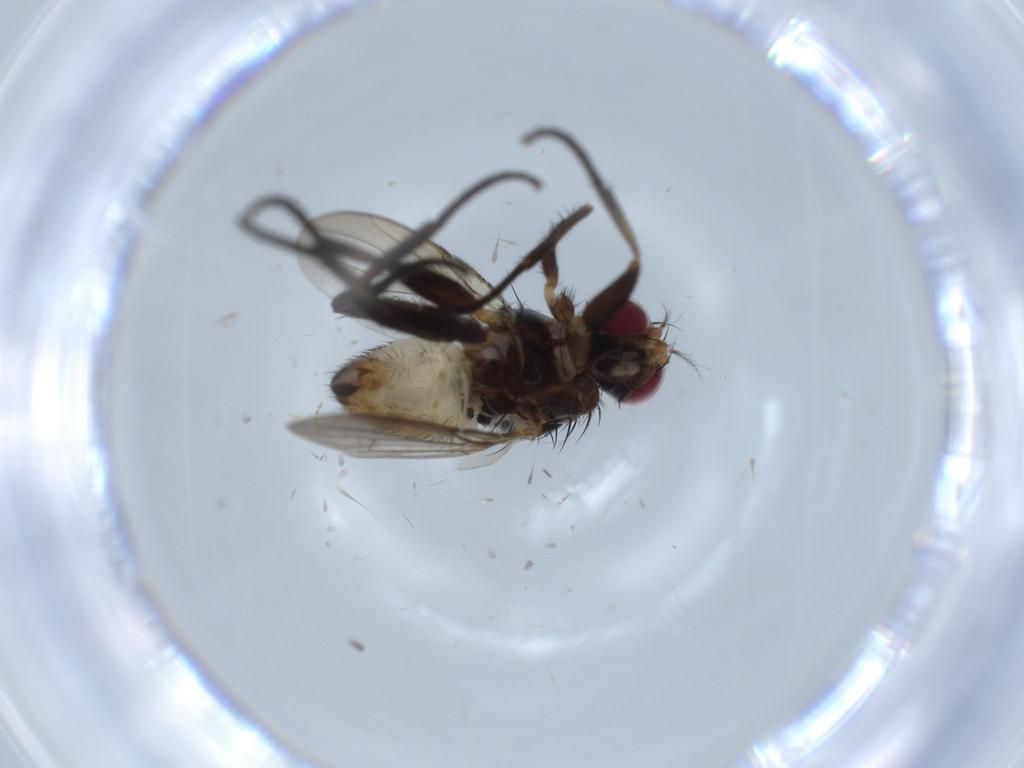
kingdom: Animalia
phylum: Arthropoda
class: Insecta
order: Diptera
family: Anthomyiidae
